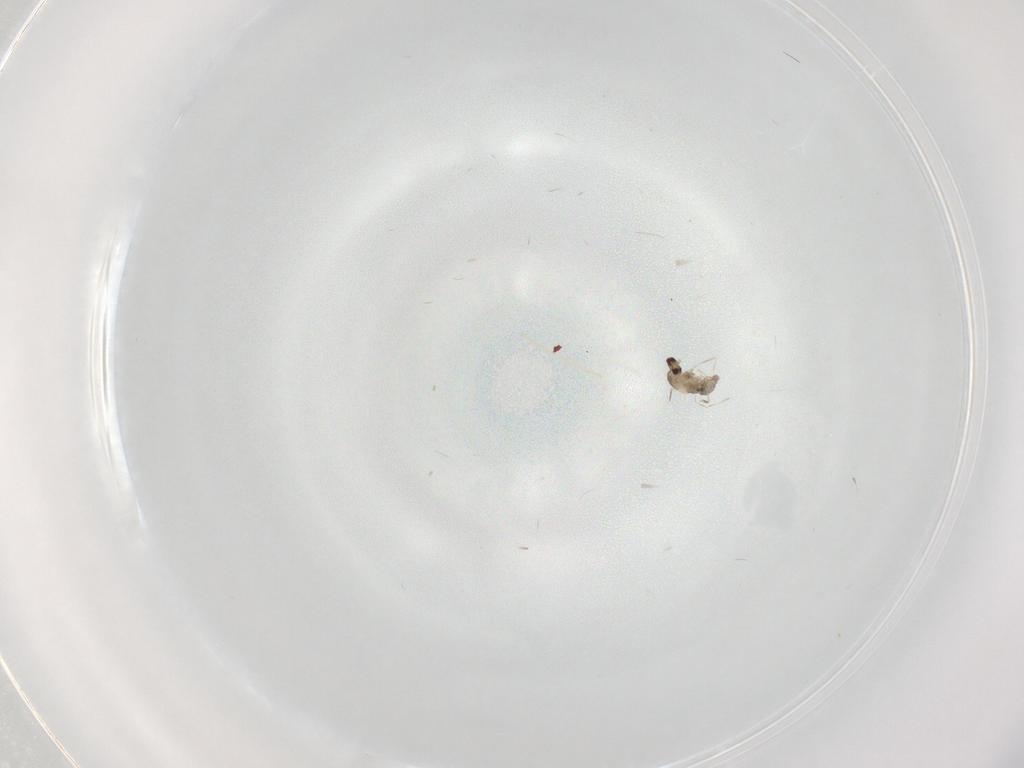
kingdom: Animalia
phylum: Arthropoda
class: Insecta
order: Diptera
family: Cecidomyiidae
